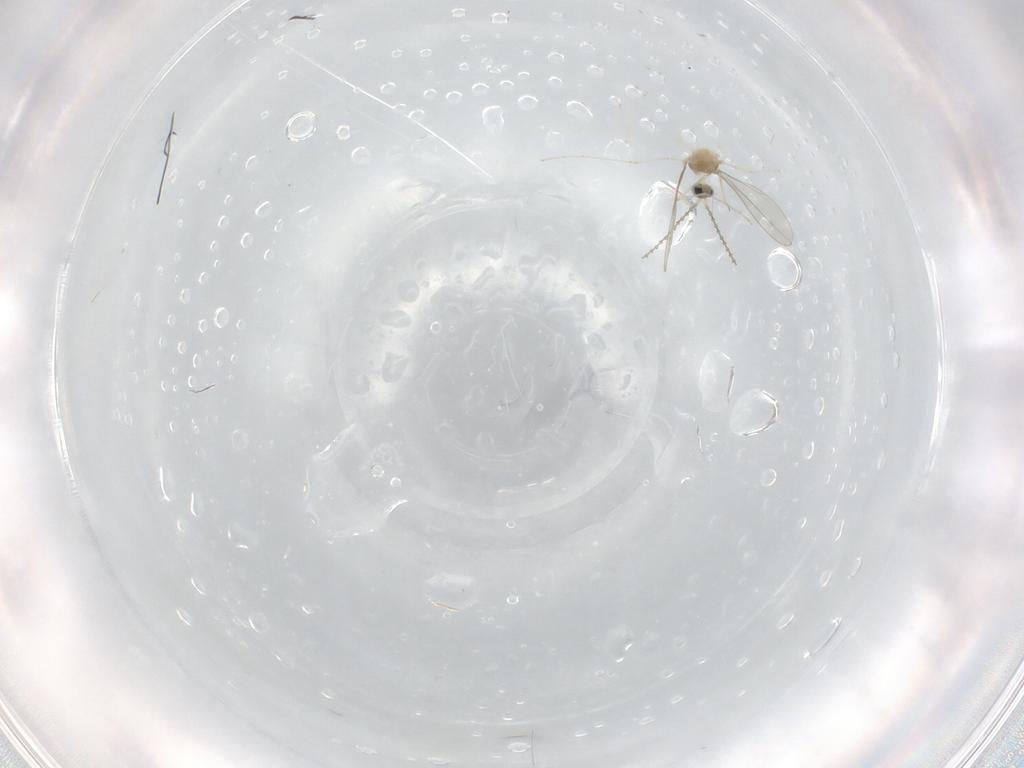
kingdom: Animalia
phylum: Arthropoda
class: Insecta
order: Diptera
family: Cecidomyiidae
